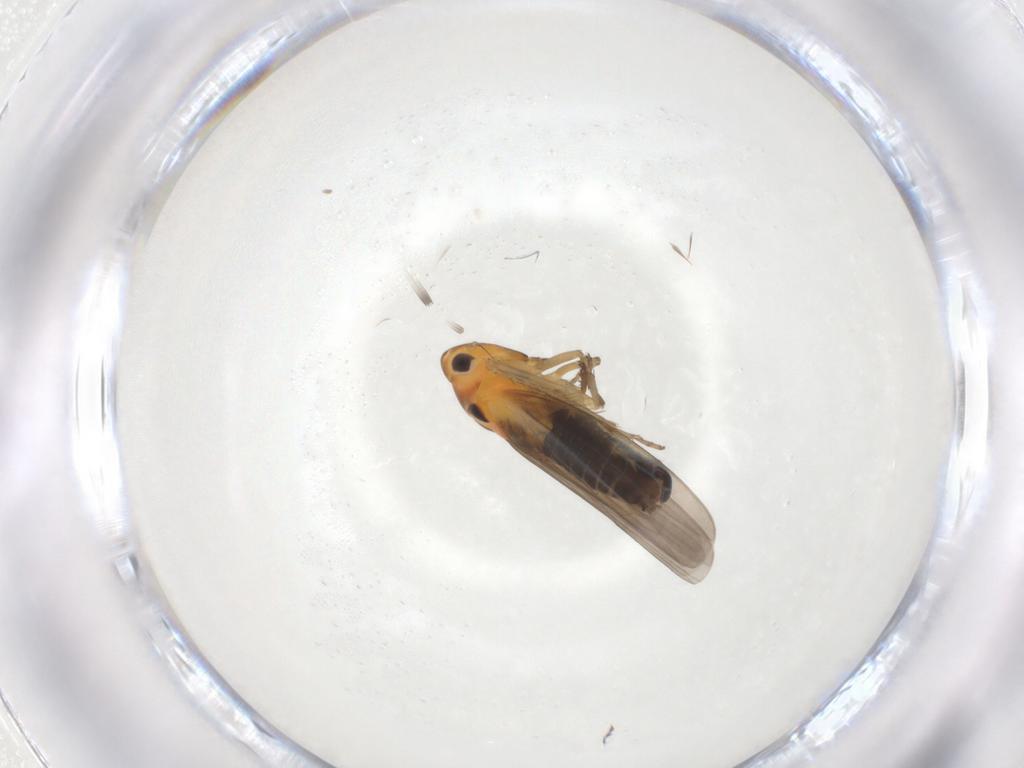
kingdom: Animalia
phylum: Arthropoda
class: Insecta
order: Hemiptera
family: Cicadellidae
